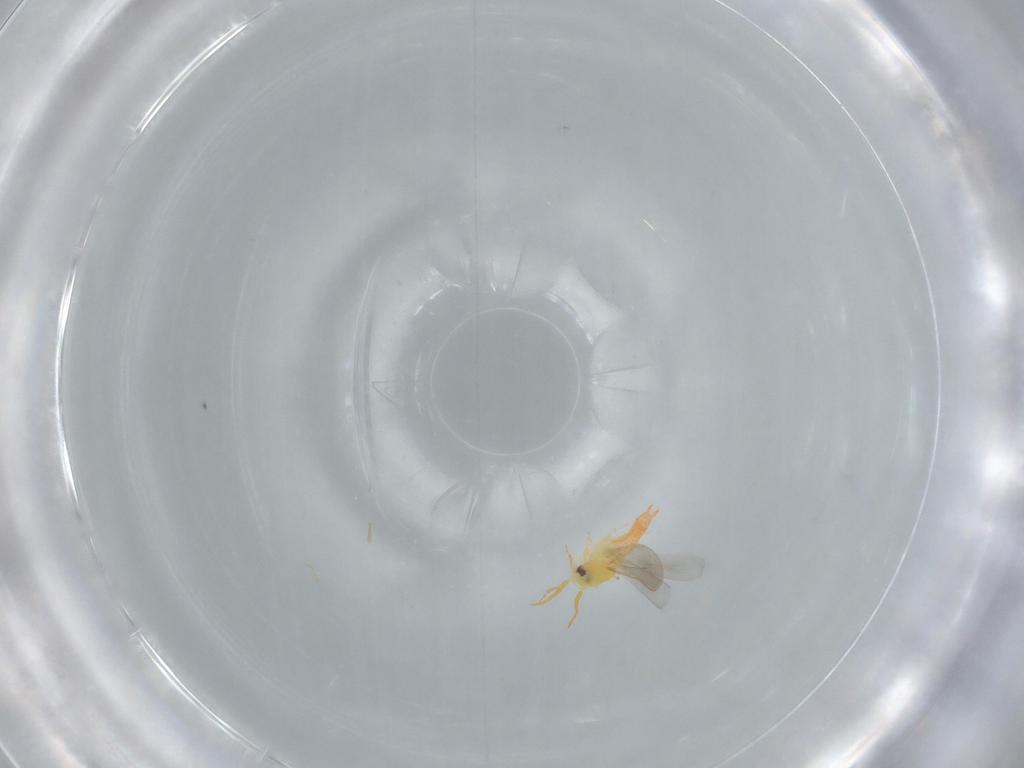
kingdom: Animalia
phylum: Arthropoda
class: Insecta
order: Hemiptera
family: Aleyrodidae
